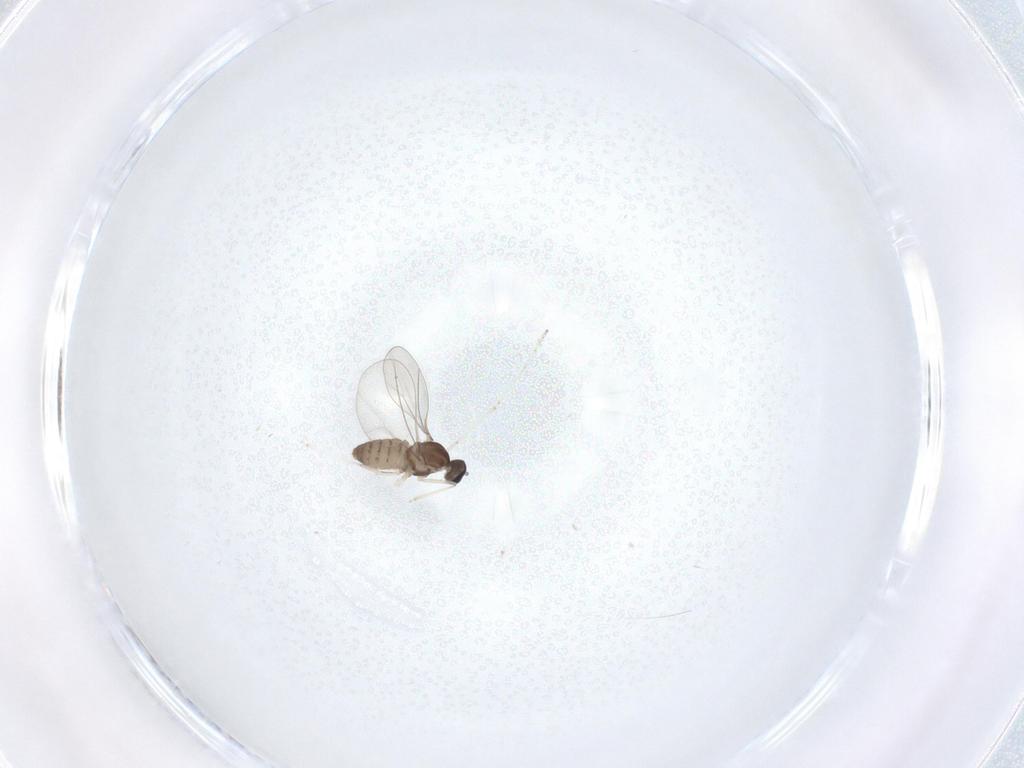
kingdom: Animalia
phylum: Arthropoda
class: Insecta
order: Diptera
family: Cecidomyiidae
